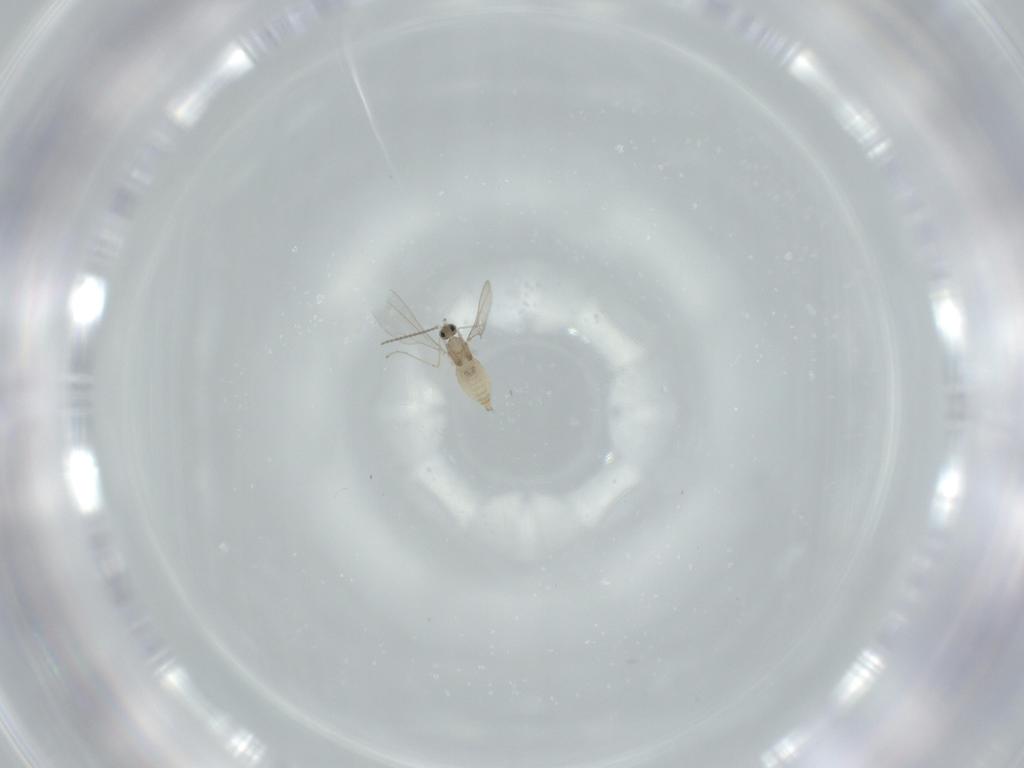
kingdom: Animalia
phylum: Arthropoda
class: Insecta
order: Diptera
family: Cecidomyiidae
